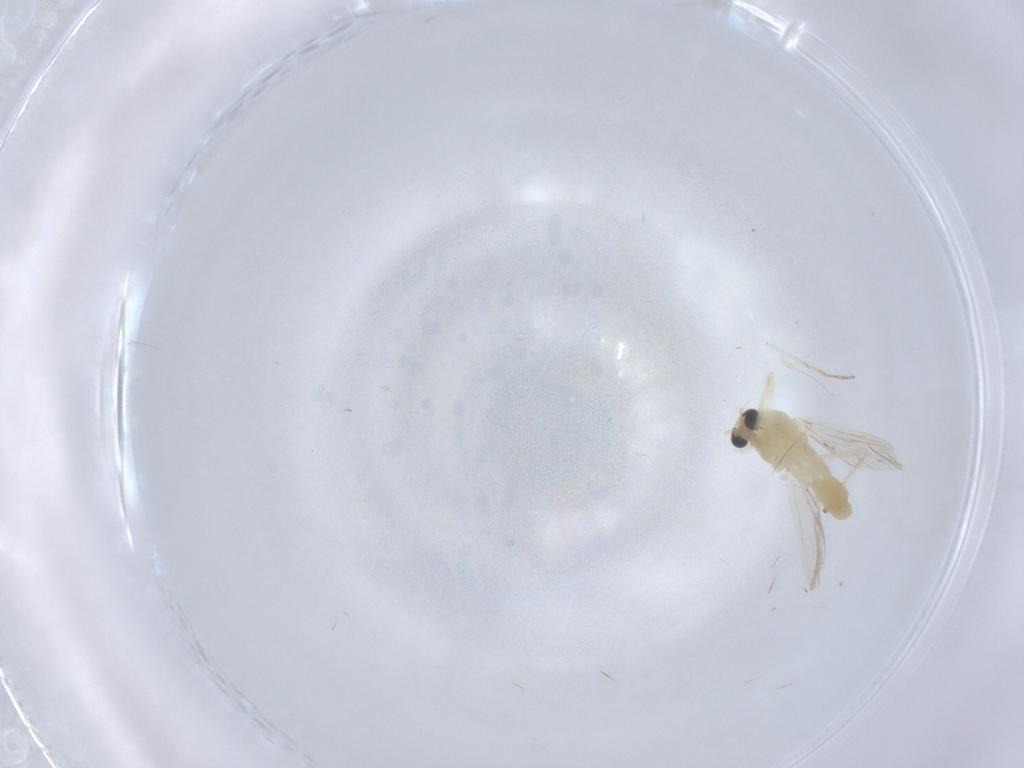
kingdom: Animalia
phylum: Arthropoda
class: Insecta
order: Diptera
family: Chironomidae
